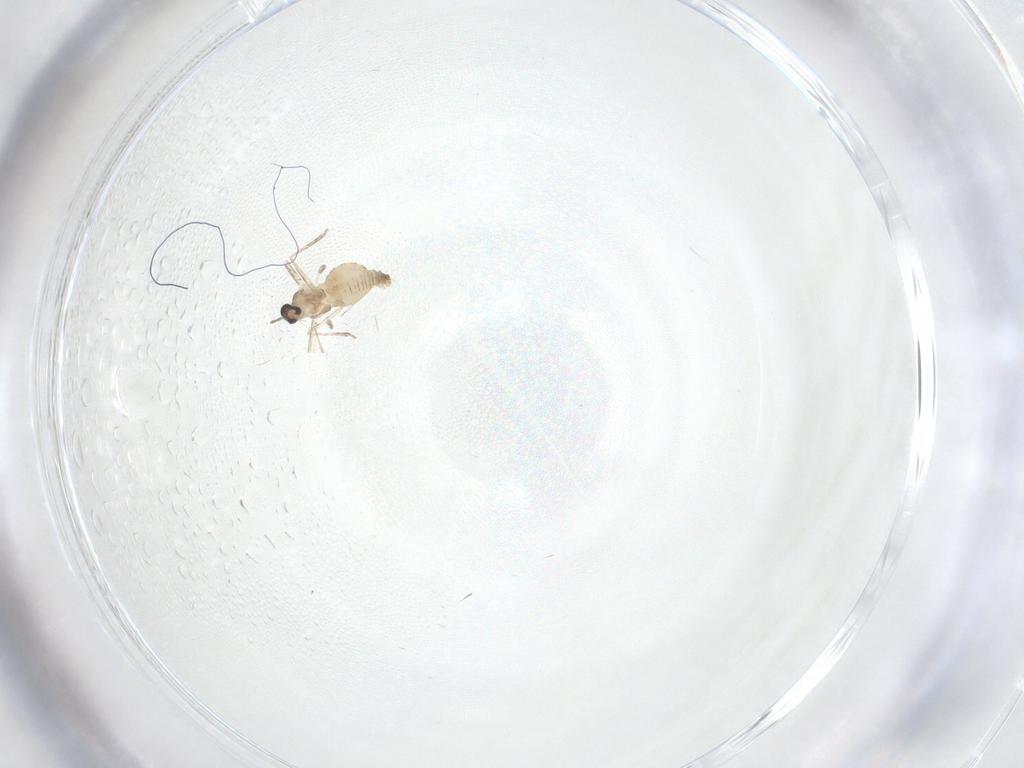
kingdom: Animalia
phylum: Arthropoda
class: Insecta
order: Diptera
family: Cecidomyiidae
